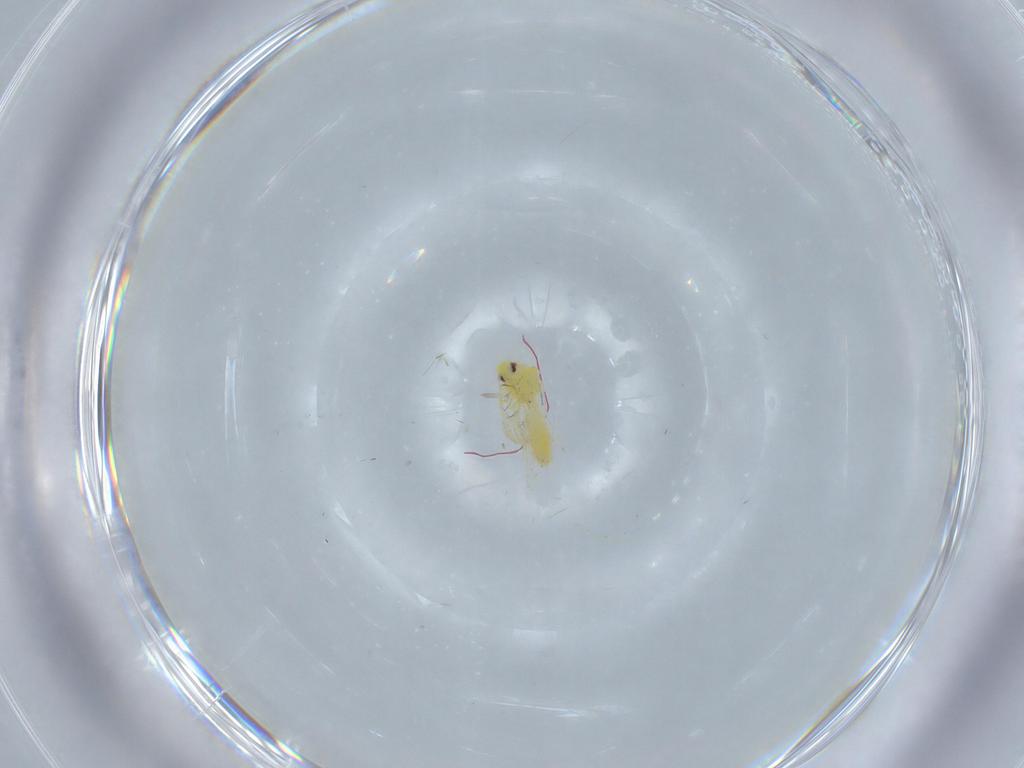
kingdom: Animalia
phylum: Arthropoda
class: Insecta
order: Hemiptera
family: Aleyrodidae
